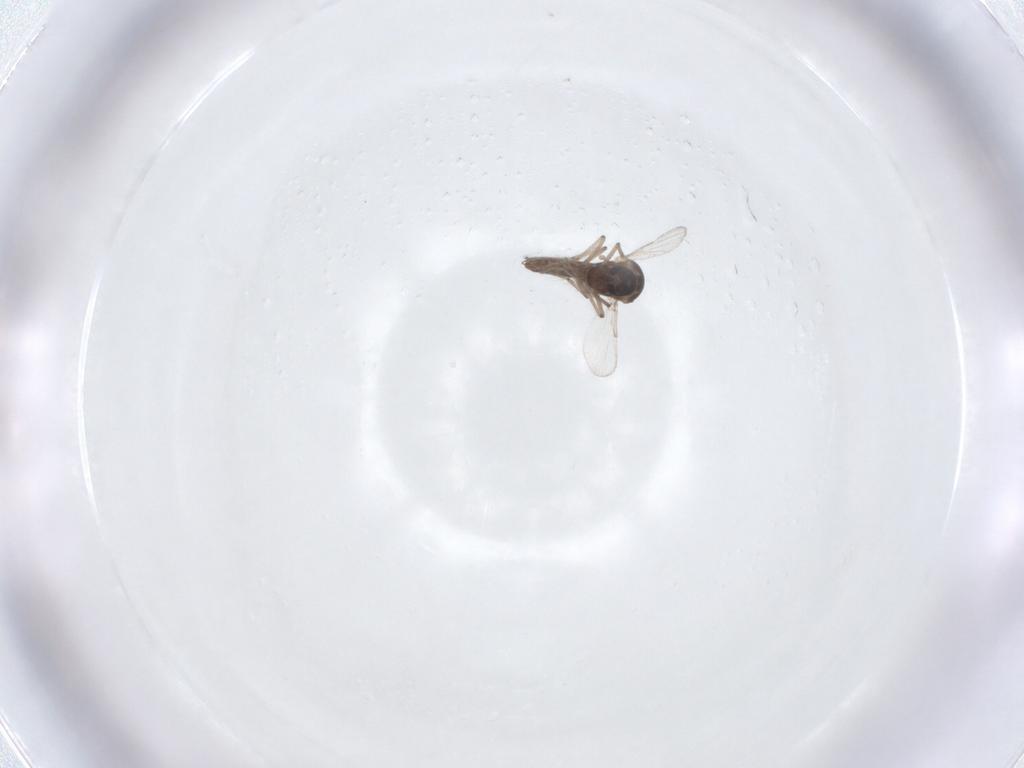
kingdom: Animalia
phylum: Arthropoda
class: Insecta
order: Diptera
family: Ceratopogonidae
